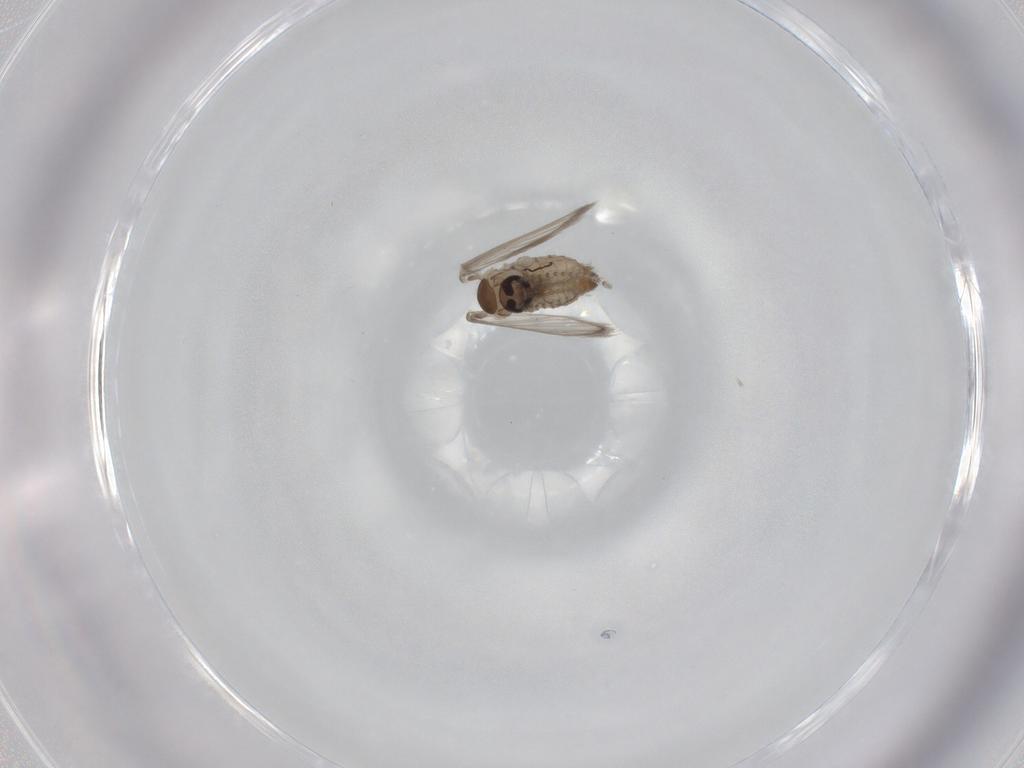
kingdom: Animalia
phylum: Arthropoda
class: Insecta
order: Diptera
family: Psychodidae
